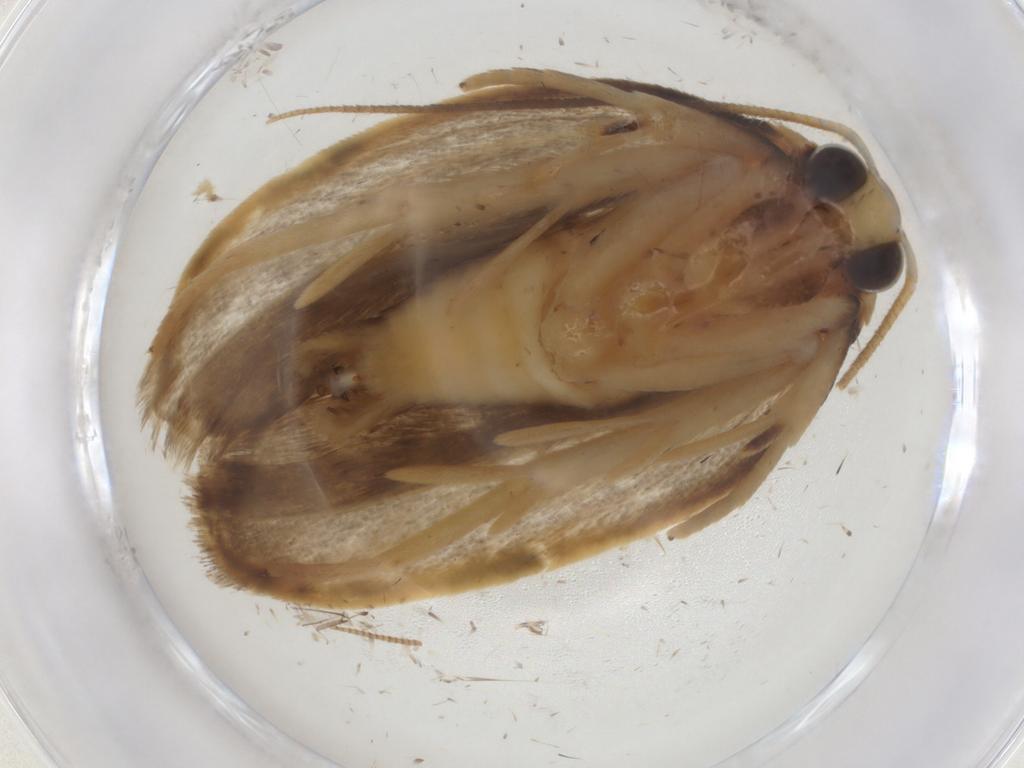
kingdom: Animalia
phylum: Arthropoda
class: Insecta
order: Lepidoptera
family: Depressariidae
